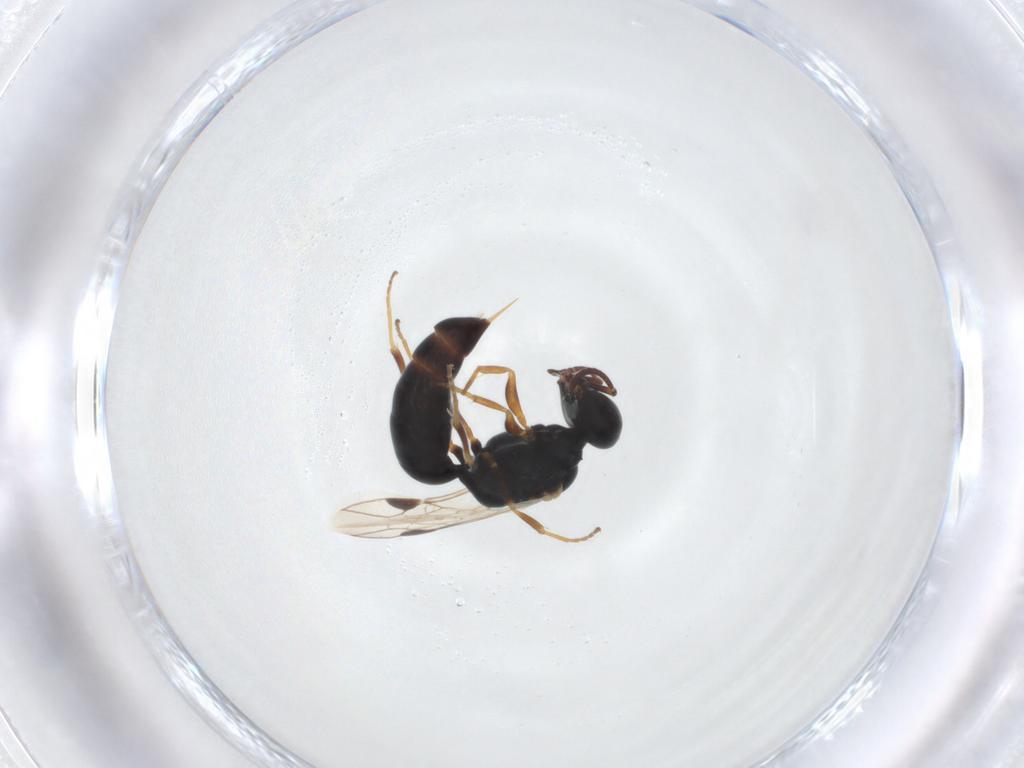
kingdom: Animalia
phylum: Arthropoda
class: Insecta
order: Hymenoptera
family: Pemphredonidae
